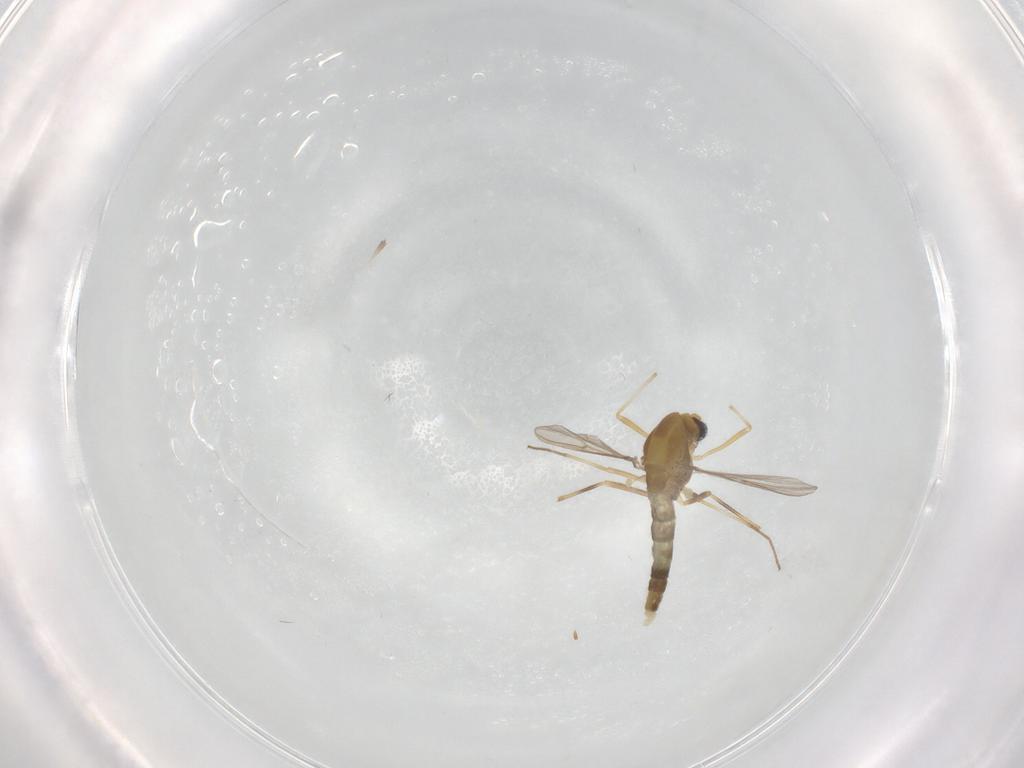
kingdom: Animalia
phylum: Arthropoda
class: Insecta
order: Diptera
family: Chironomidae
